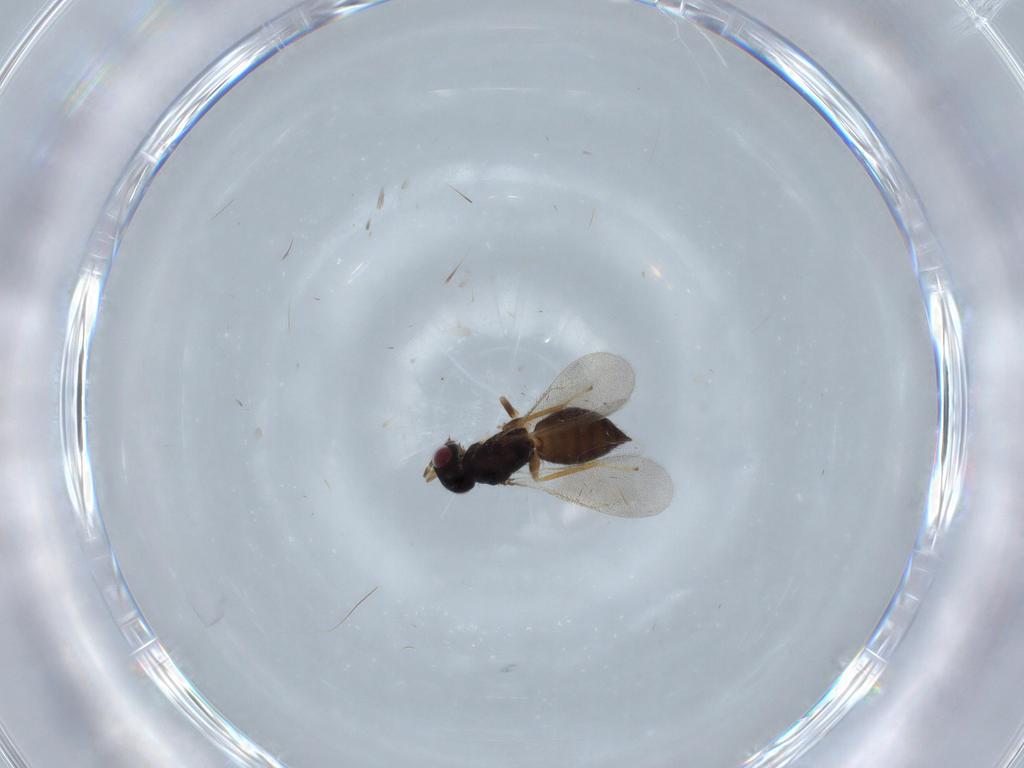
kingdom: Animalia
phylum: Arthropoda
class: Insecta
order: Hymenoptera
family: Eulophidae
